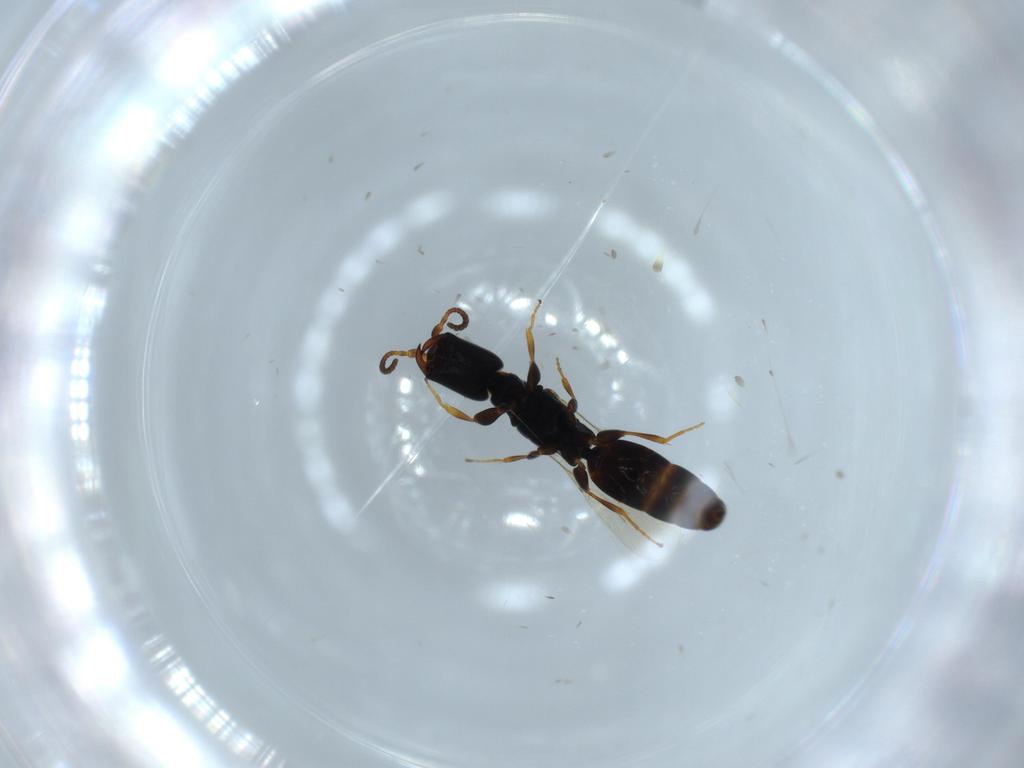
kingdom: Animalia
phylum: Arthropoda
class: Insecta
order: Hymenoptera
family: Bethylidae
